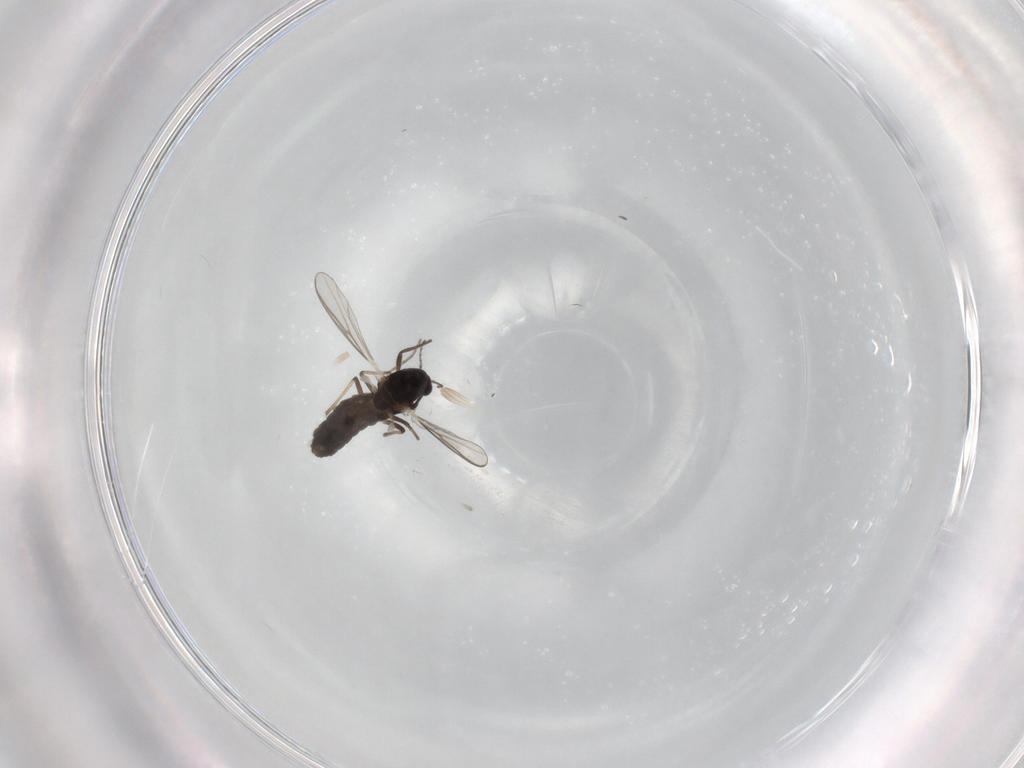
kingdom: Animalia
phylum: Arthropoda
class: Insecta
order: Diptera
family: Chironomidae
